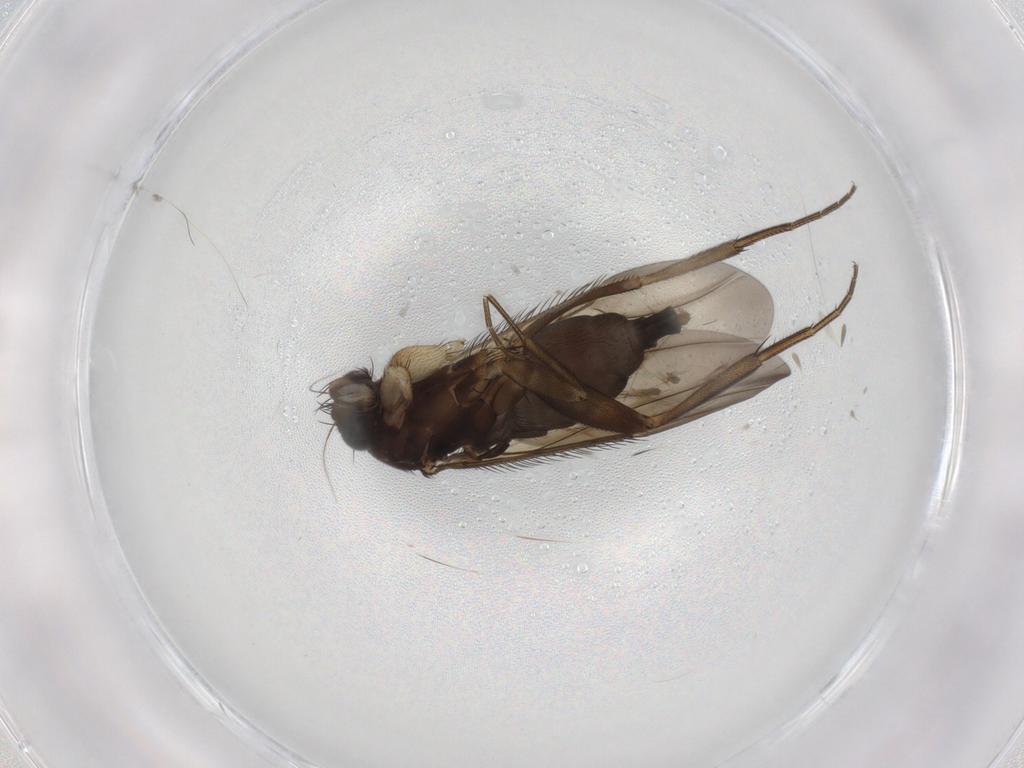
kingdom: Animalia
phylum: Arthropoda
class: Insecta
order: Diptera
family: Phoridae
